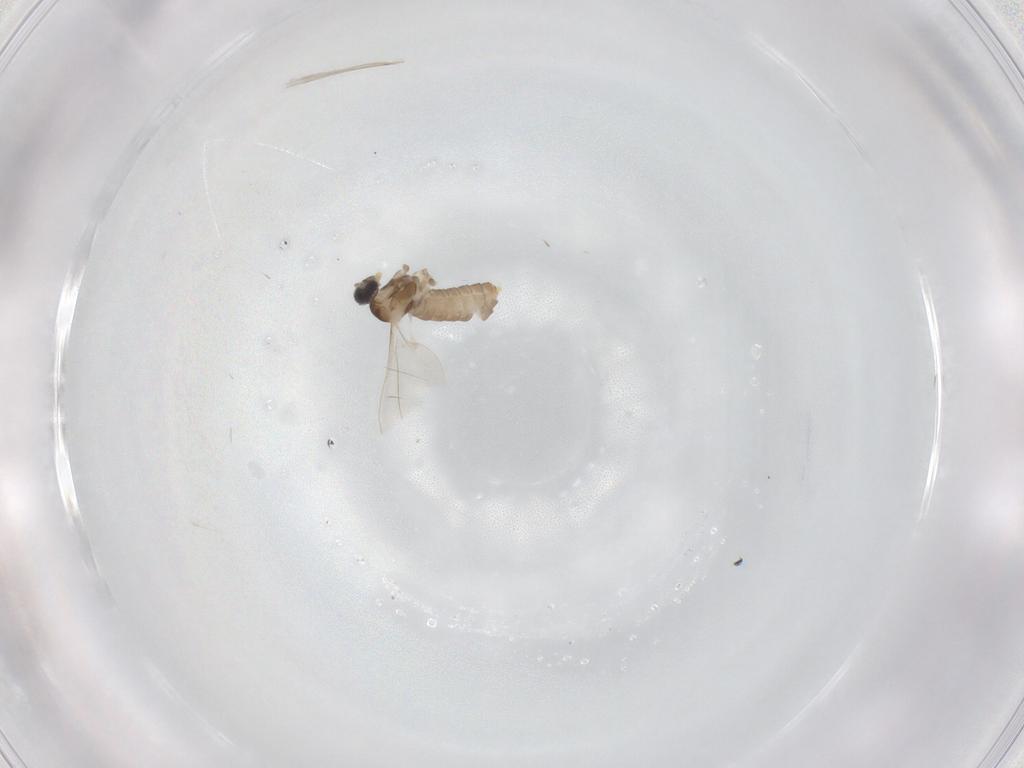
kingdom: Animalia
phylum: Arthropoda
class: Insecta
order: Diptera
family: Cecidomyiidae
